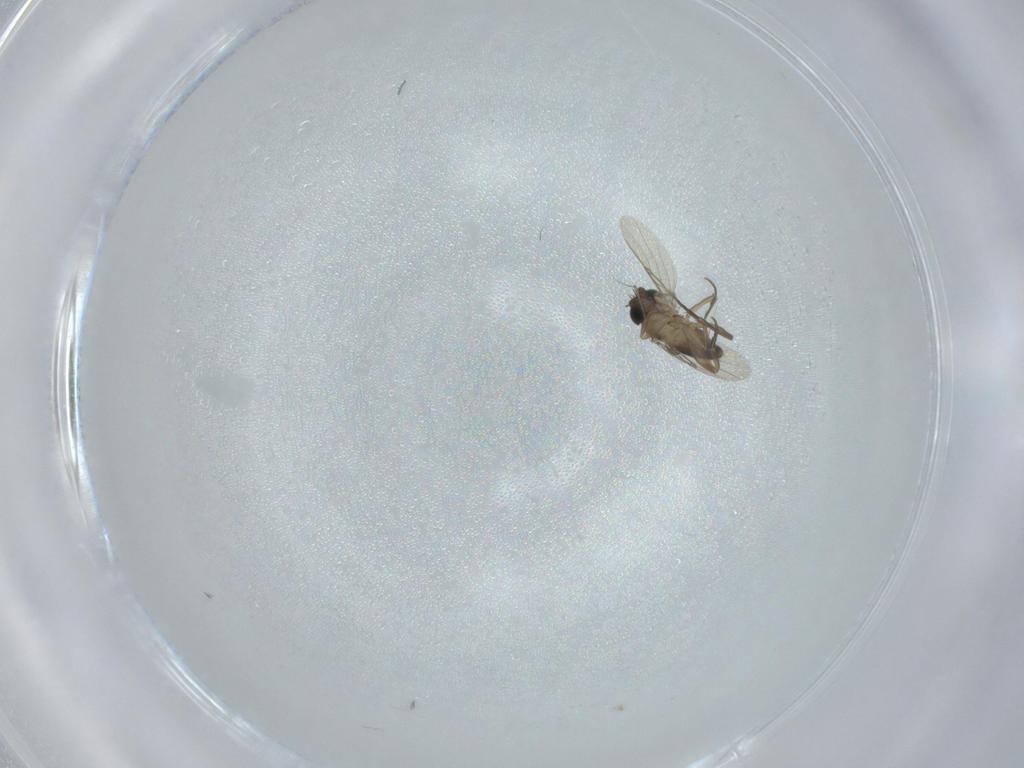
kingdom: Animalia
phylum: Arthropoda
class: Insecta
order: Diptera
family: Phoridae
